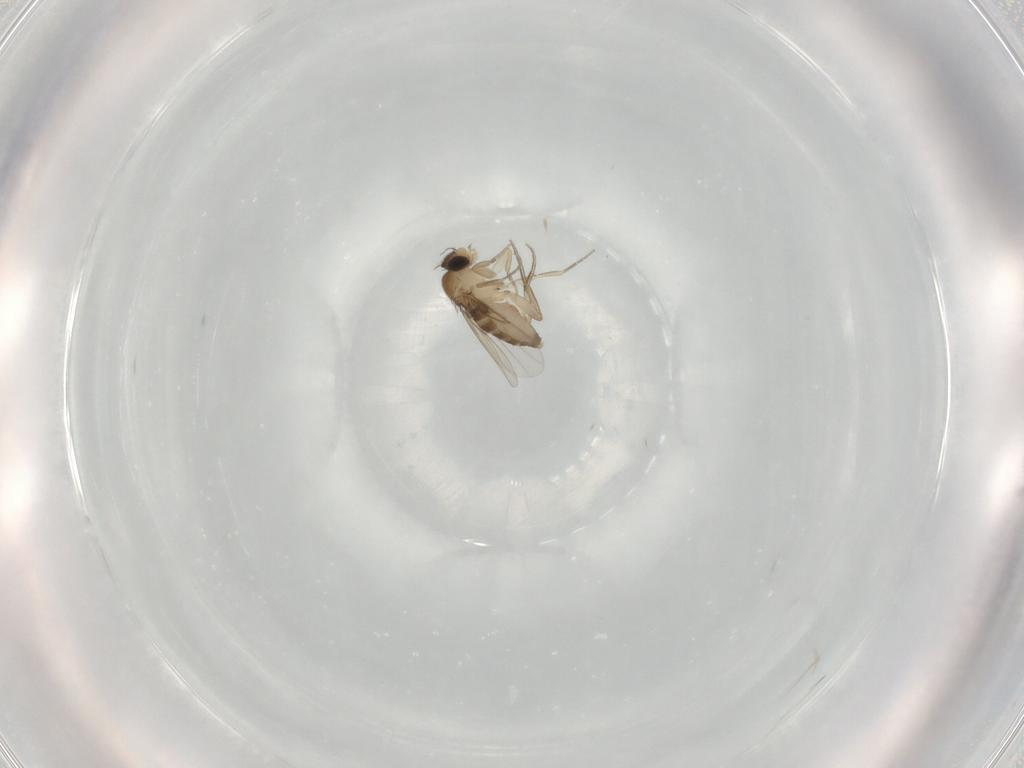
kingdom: Animalia
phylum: Arthropoda
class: Insecta
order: Diptera
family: Phoridae
